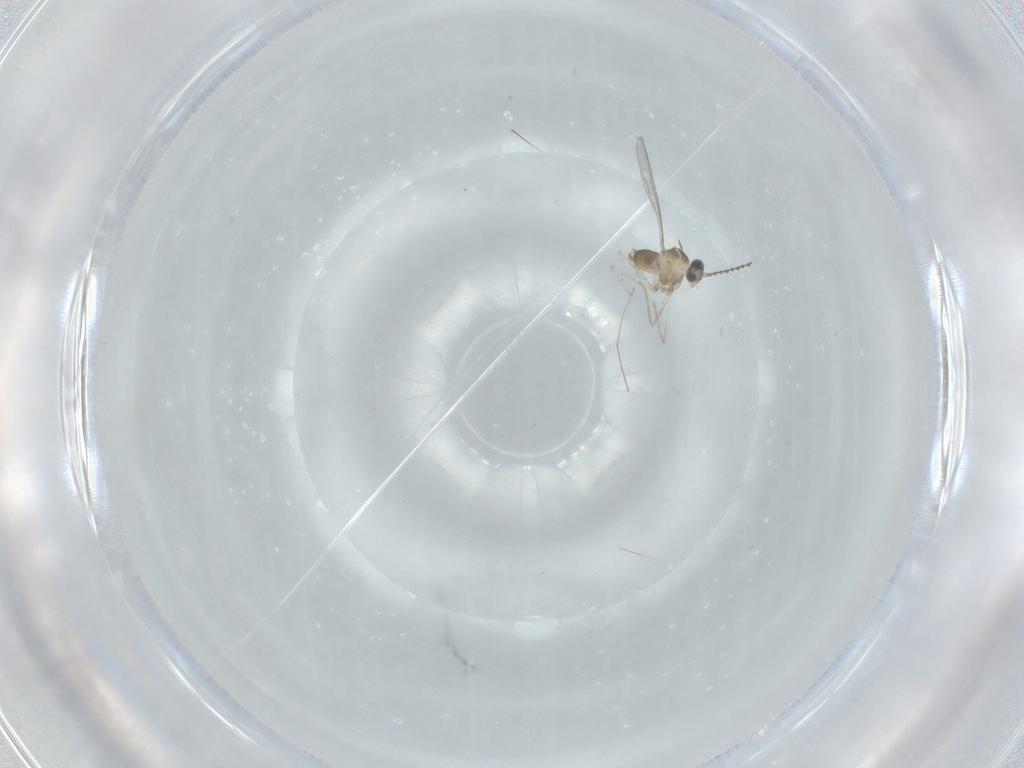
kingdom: Animalia
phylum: Arthropoda
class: Insecta
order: Diptera
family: Cecidomyiidae
